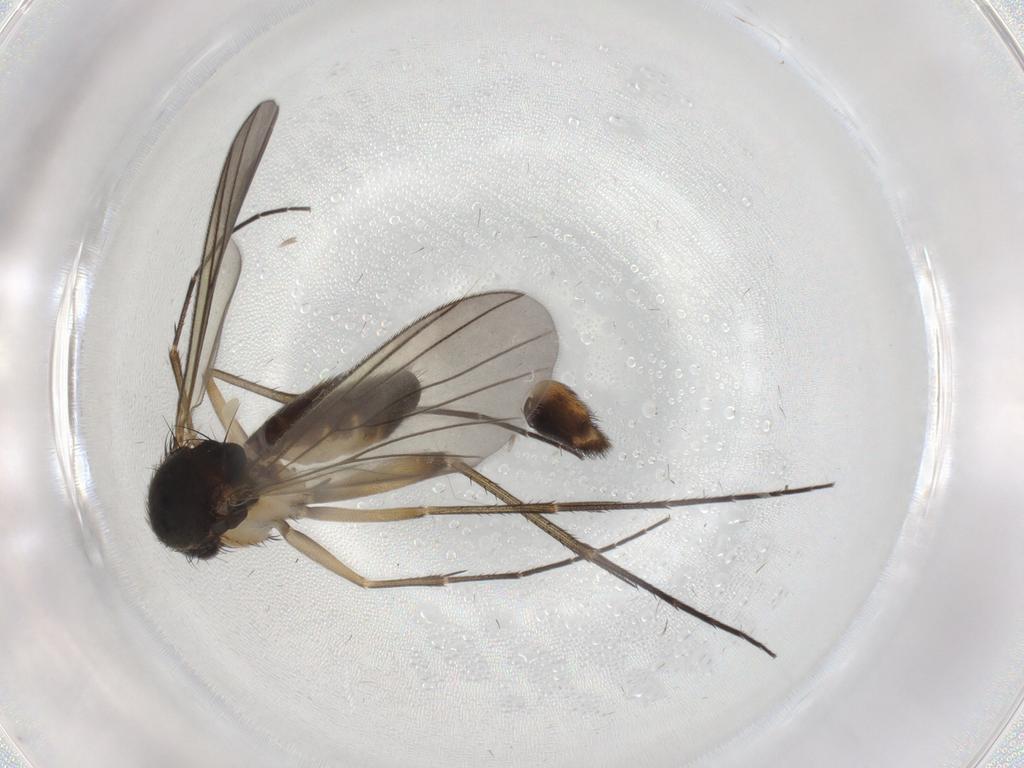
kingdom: Animalia
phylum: Arthropoda
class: Insecta
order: Diptera
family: Mycetophilidae
